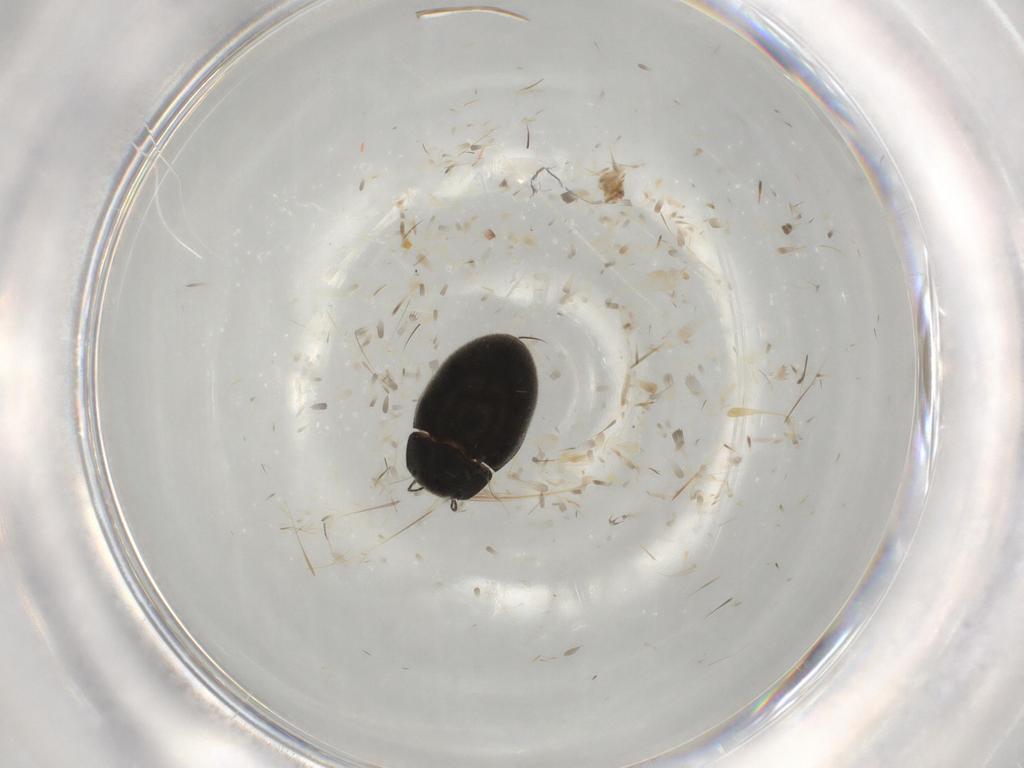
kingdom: Animalia
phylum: Arthropoda
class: Insecta
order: Coleoptera
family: Limnichidae
